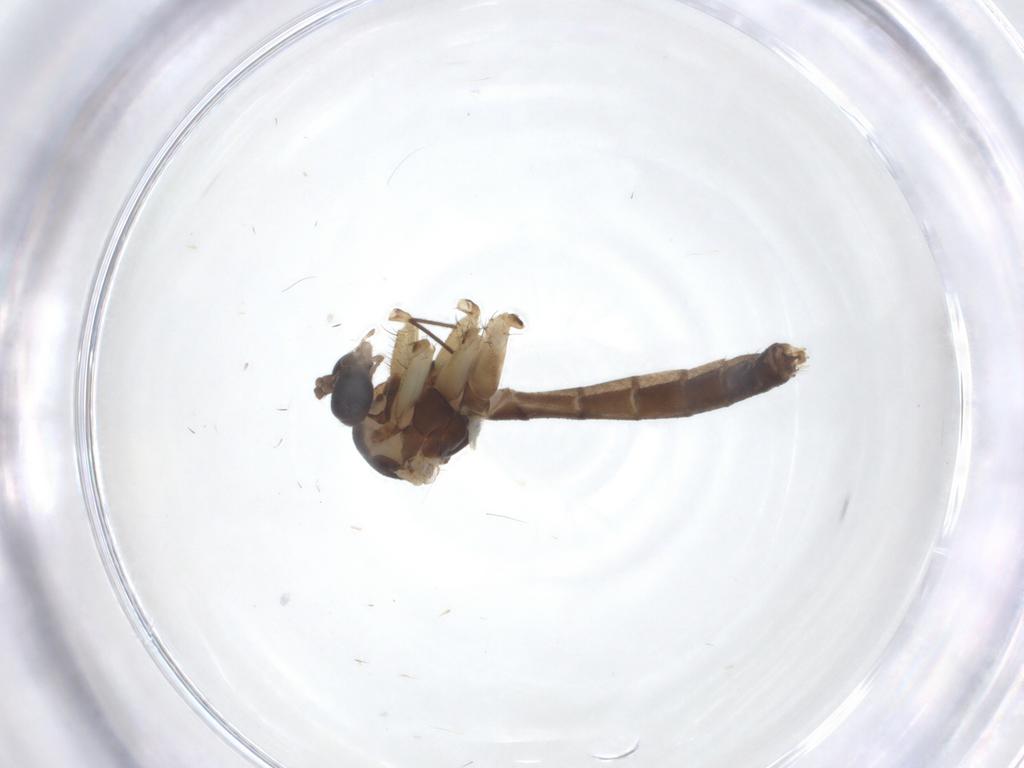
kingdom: Animalia
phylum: Arthropoda
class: Insecta
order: Diptera
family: Mycetophilidae
